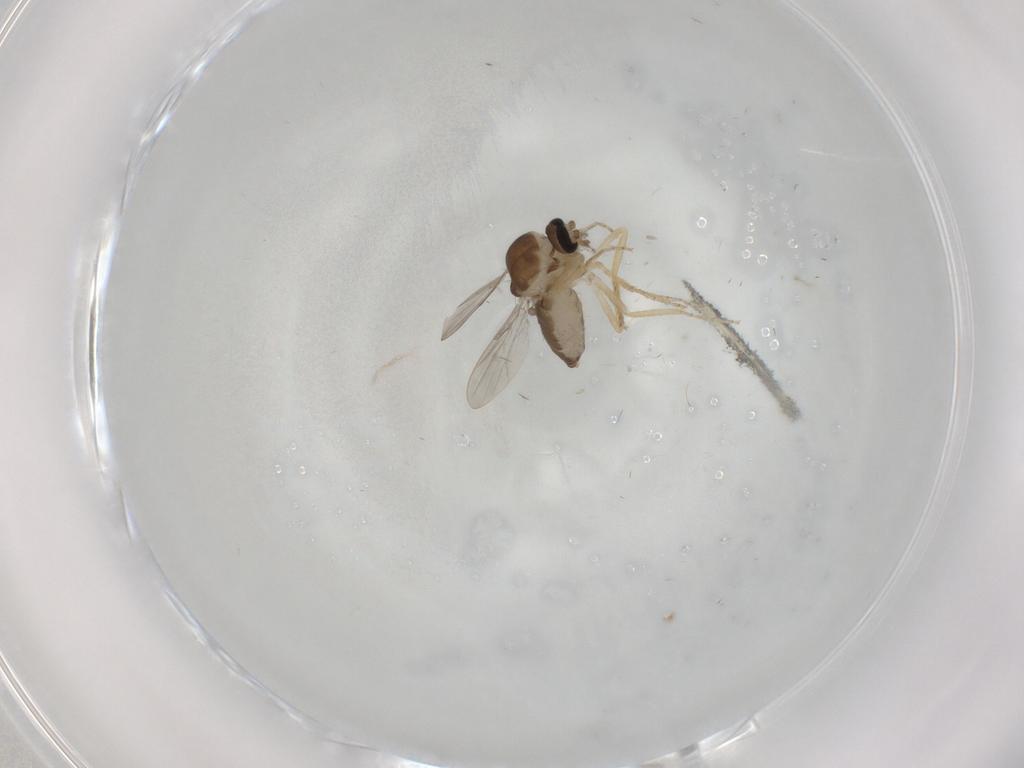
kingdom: Animalia
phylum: Arthropoda
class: Insecta
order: Diptera
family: Ceratopogonidae
